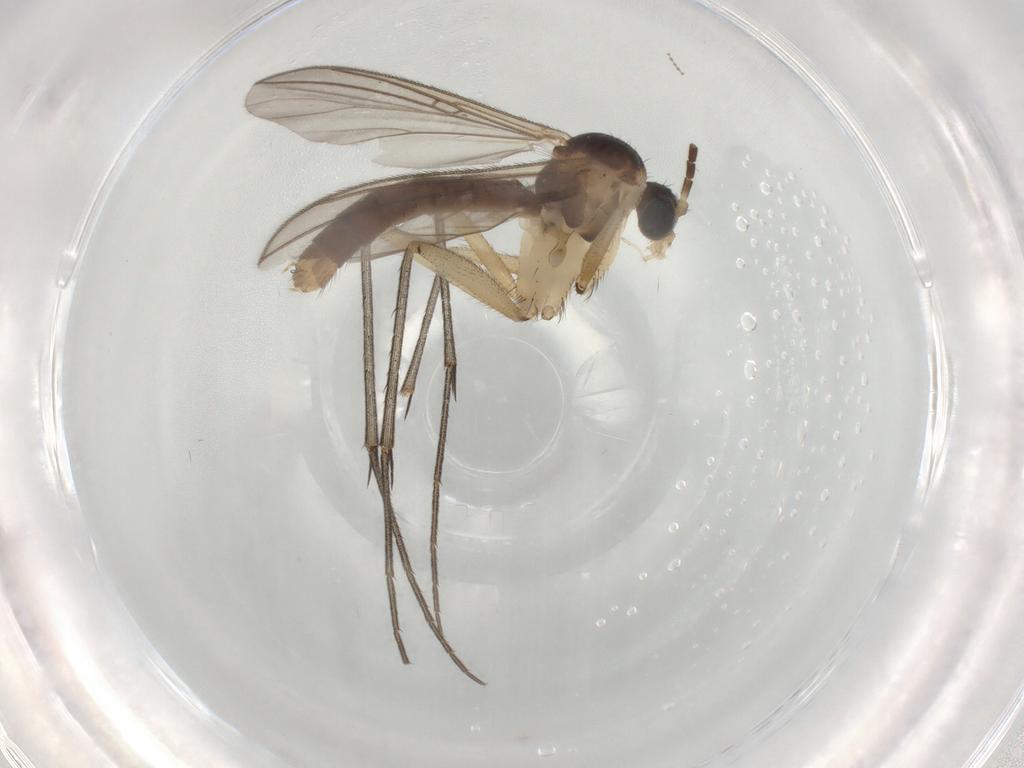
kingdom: Animalia
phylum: Arthropoda
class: Insecta
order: Diptera
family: Mycetophilidae
